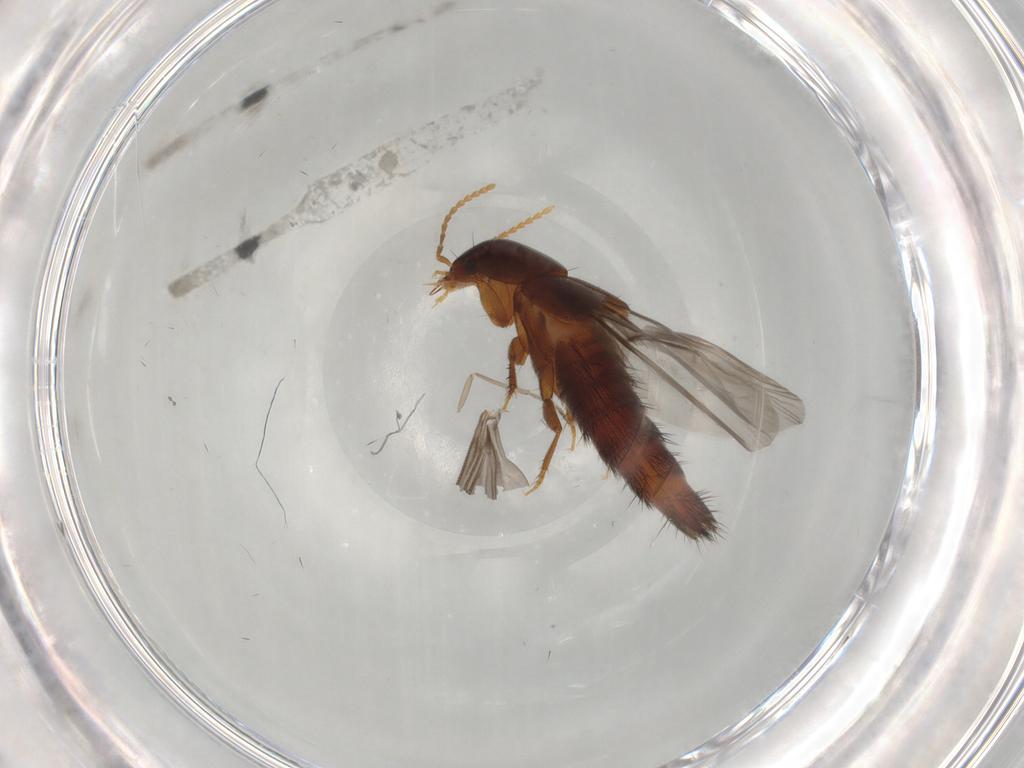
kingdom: Animalia
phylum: Arthropoda
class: Insecta
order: Coleoptera
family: Staphylinidae
